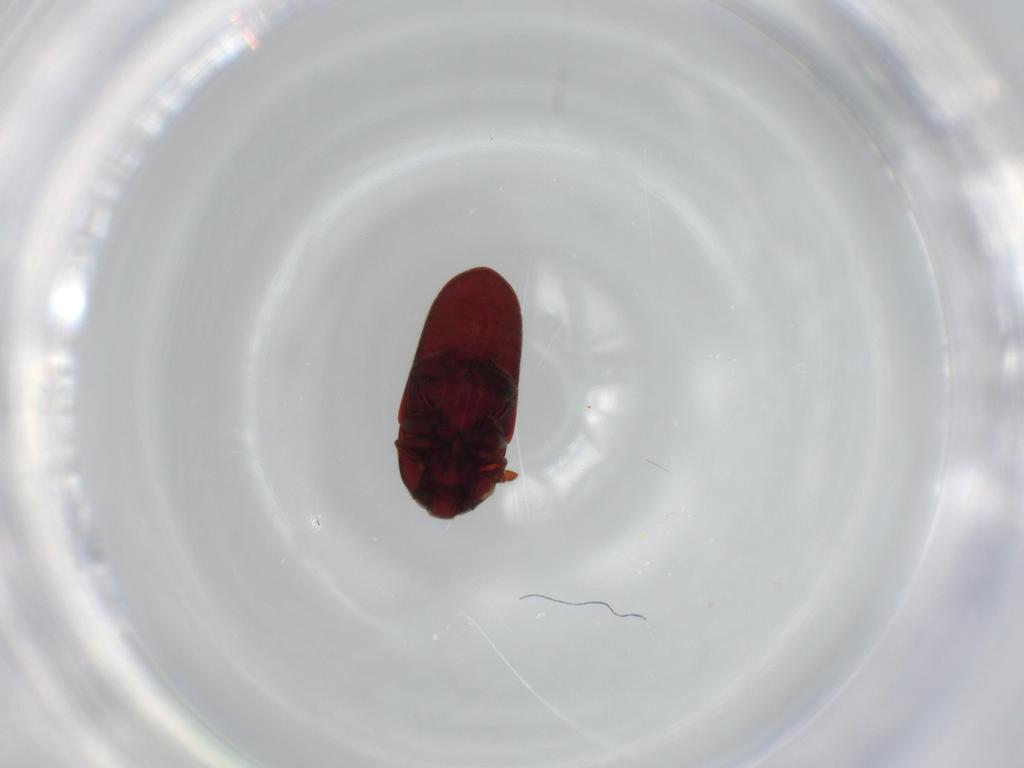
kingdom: Animalia
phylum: Arthropoda
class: Insecta
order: Coleoptera
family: Throscidae
